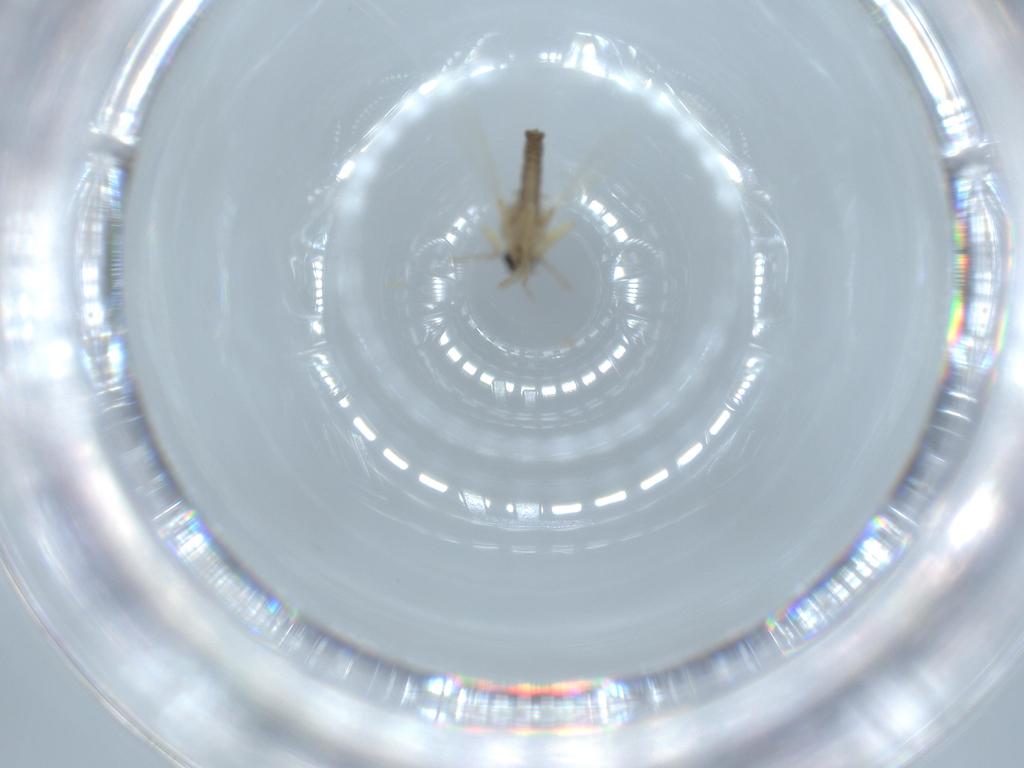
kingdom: Animalia
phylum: Arthropoda
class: Insecta
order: Diptera
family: Ceratopogonidae
